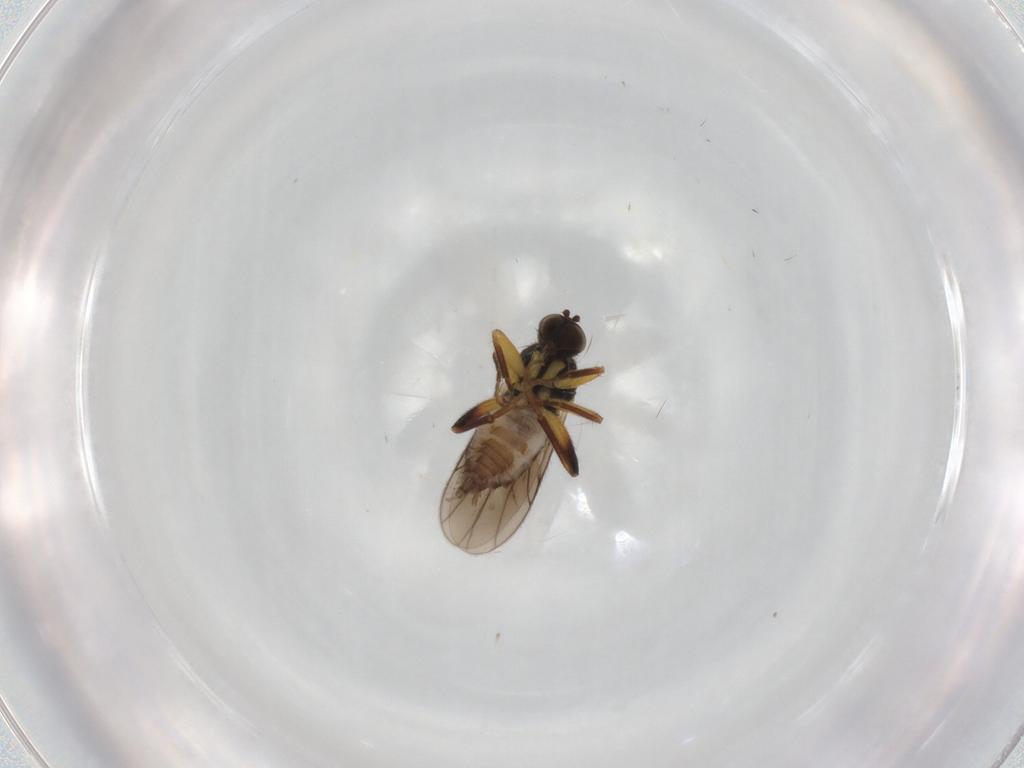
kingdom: Animalia
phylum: Arthropoda
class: Insecta
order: Diptera
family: Hybotidae
